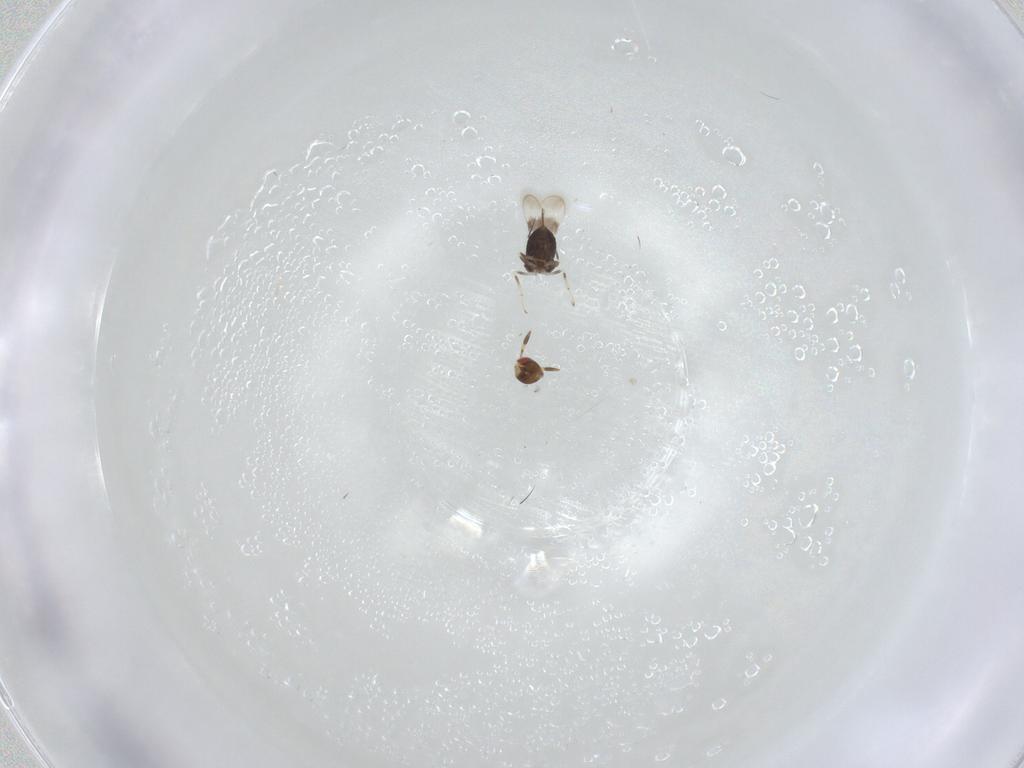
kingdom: Animalia
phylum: Arthropoda
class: Insecta
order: Hymenoptera
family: Azotidae
